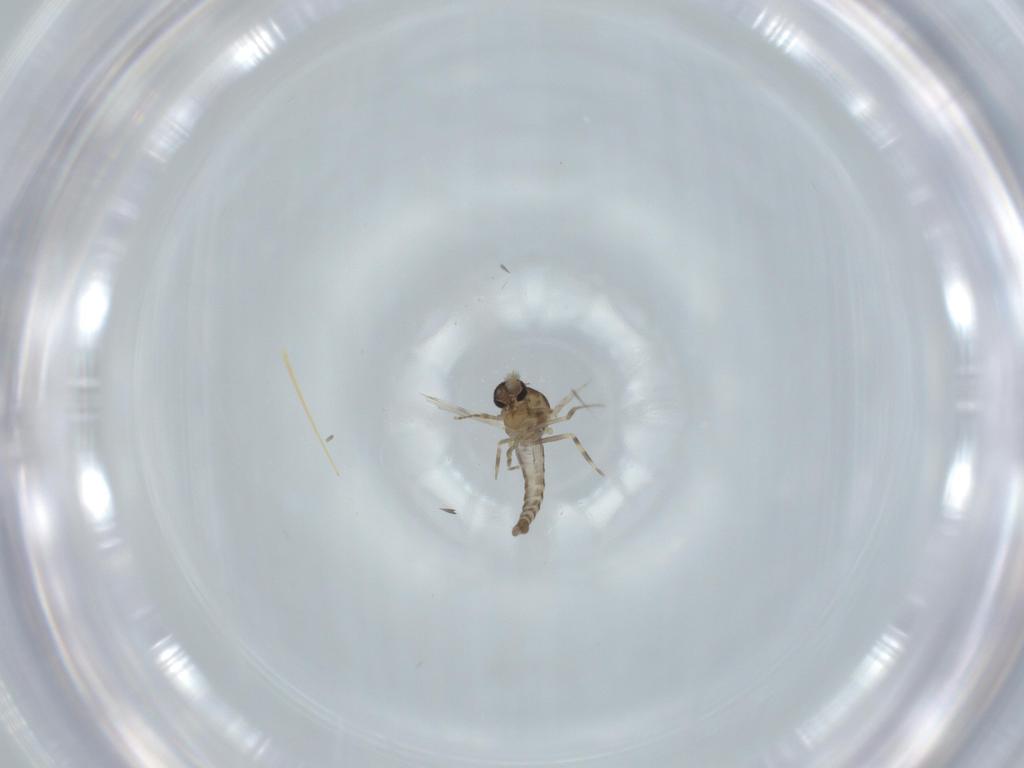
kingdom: Animalia
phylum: Arthropoda
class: Insecta
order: Diptera
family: Ceratopogonidae
